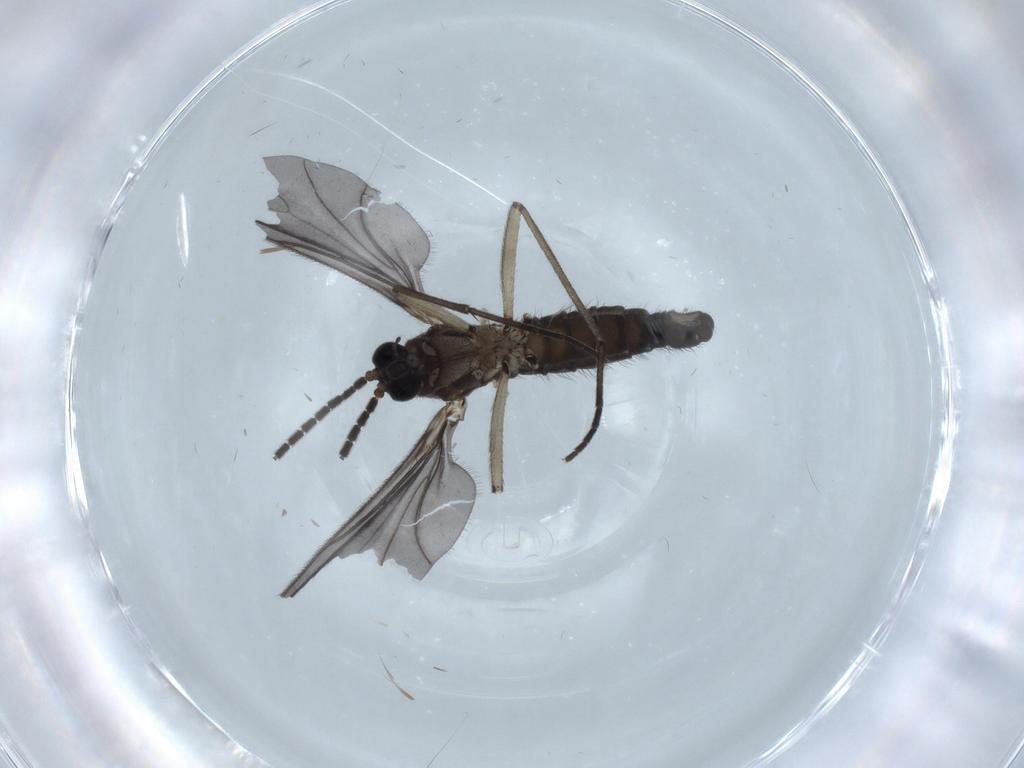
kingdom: Animalia
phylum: Arthropoda
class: Insecta
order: Diptera
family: Sciaridae
